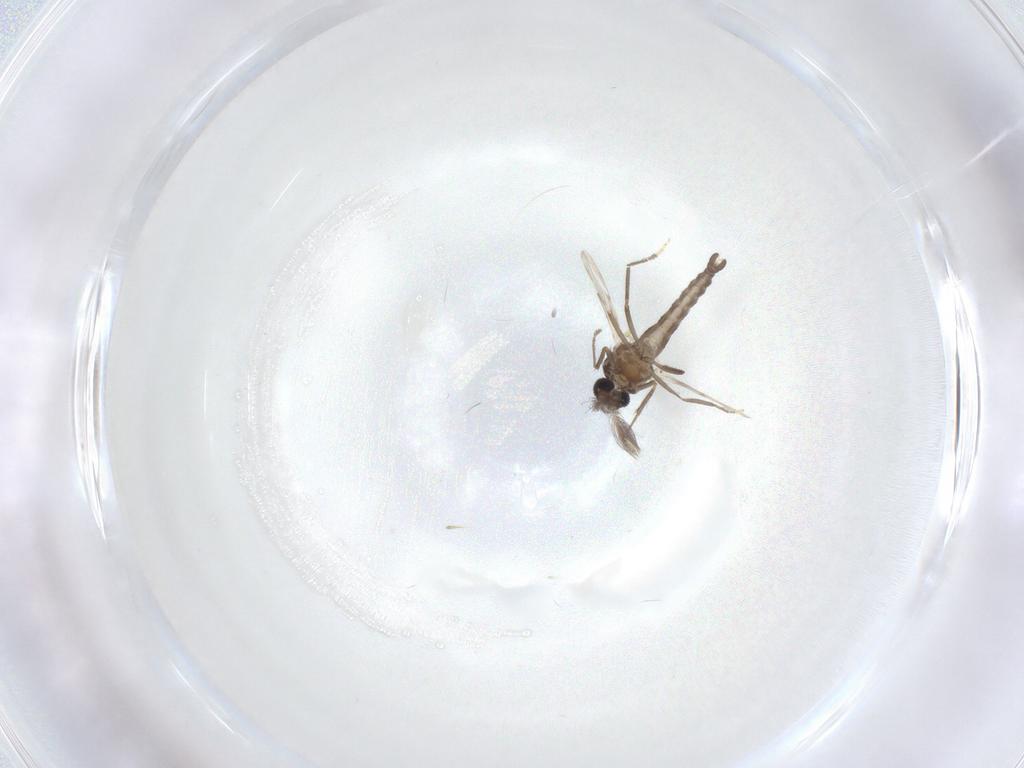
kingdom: Animalia
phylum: Arthropoda
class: Insecta
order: Diptera
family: Ceratopogonidae
